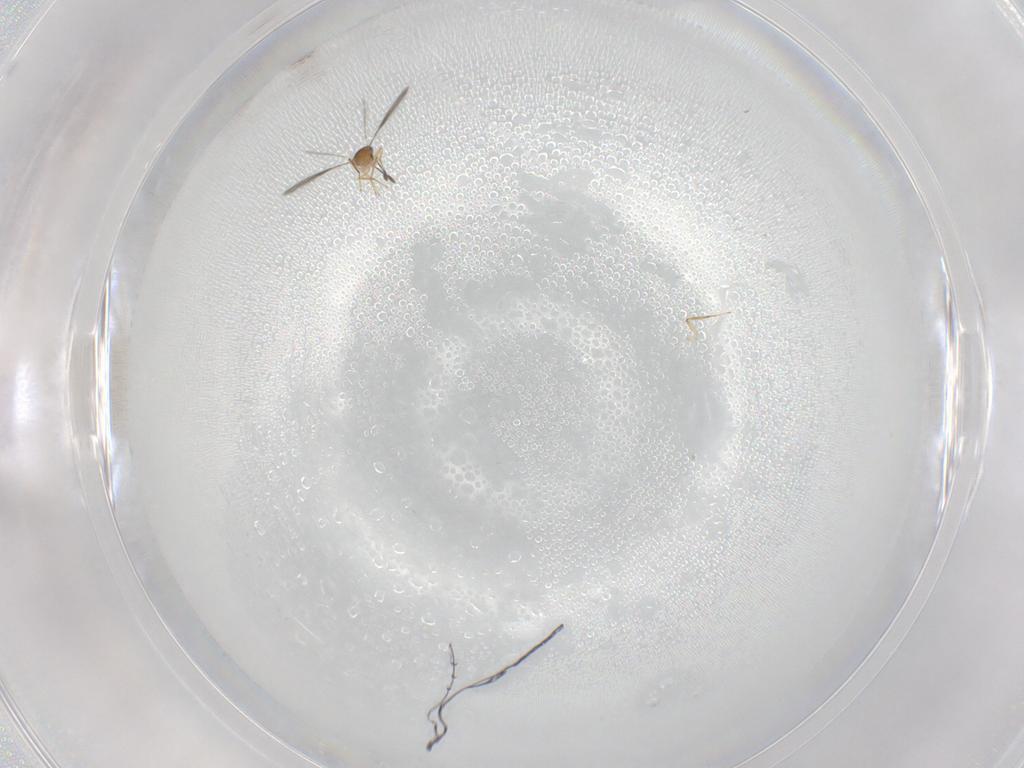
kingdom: Animalia
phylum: Arthropoda
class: Insecta
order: Hymenoptera
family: Mymaridae
